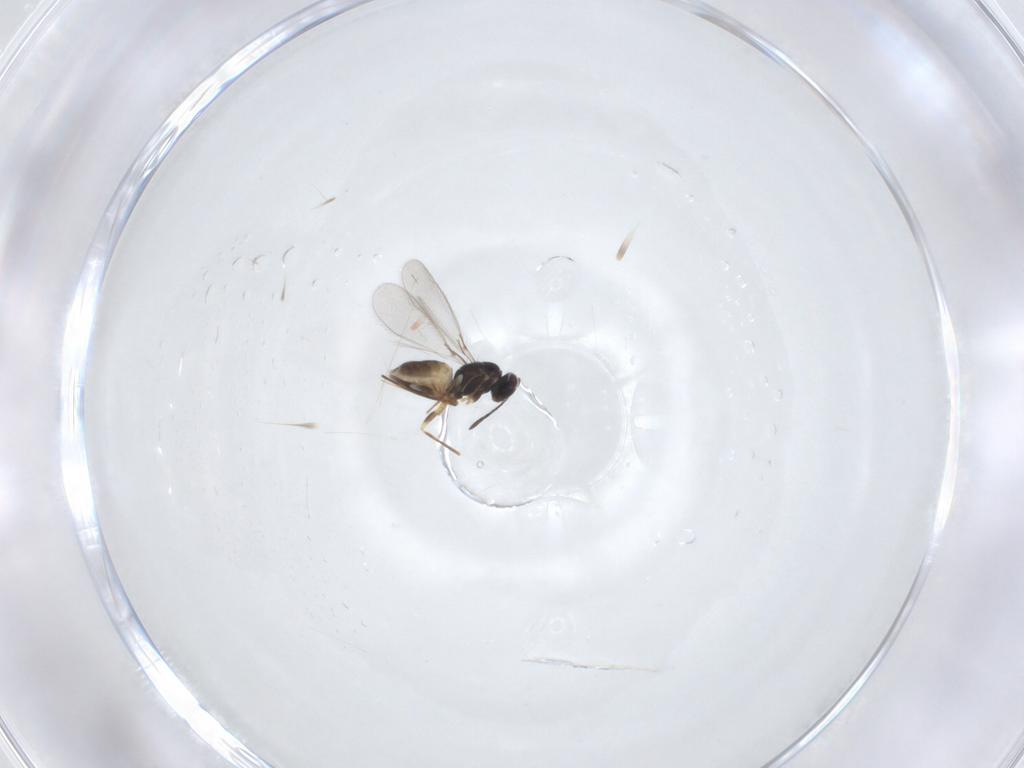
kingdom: Animalia
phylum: Arthropoda
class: Insecta
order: Hymenoptera
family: Mymaridae
